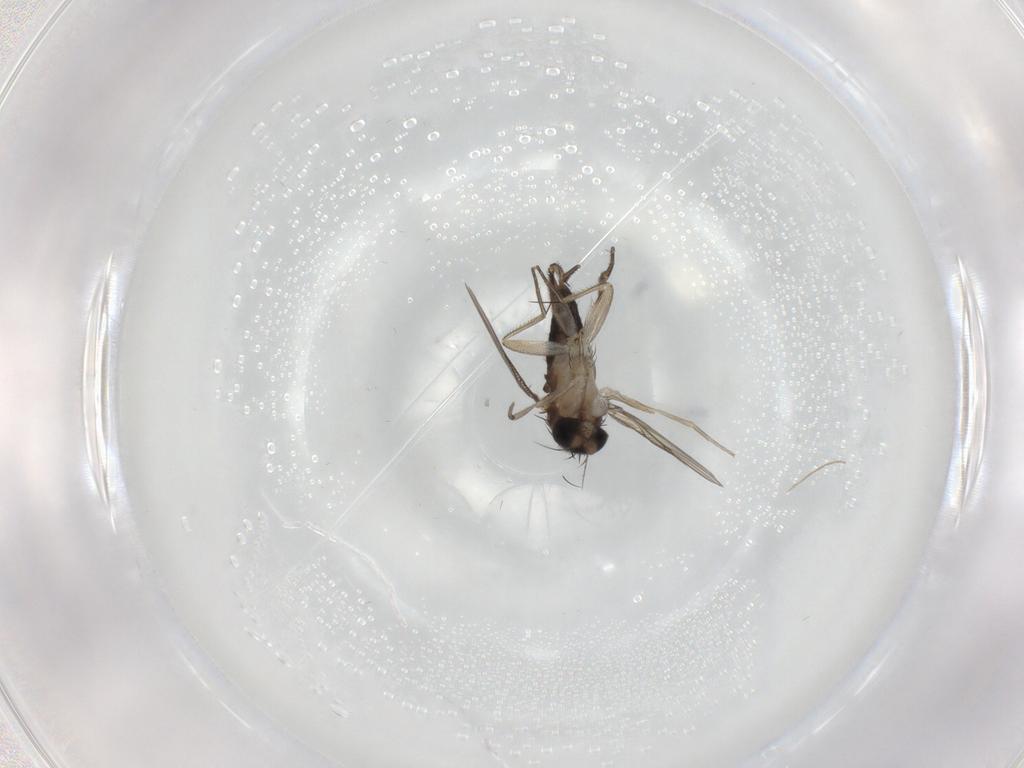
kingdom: Animalia
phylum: Arthropoda
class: Insecta
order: Diptera
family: Phoridae
